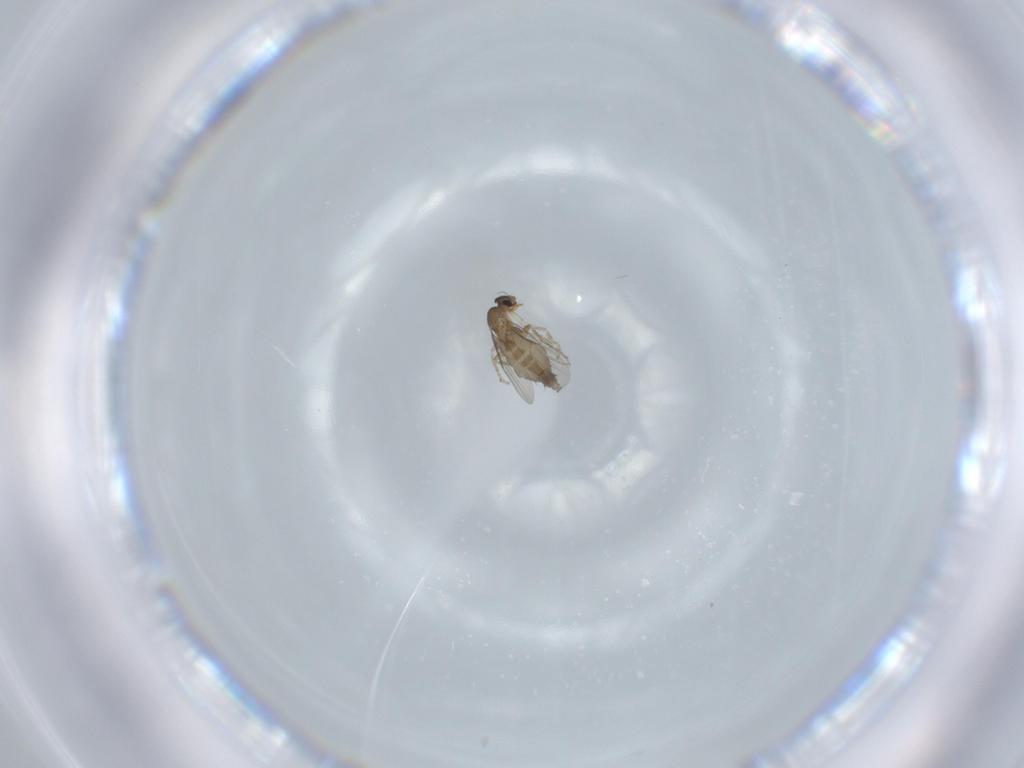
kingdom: Animalia
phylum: Arthropoda
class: Insecta
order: Diptera
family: Phoridae
